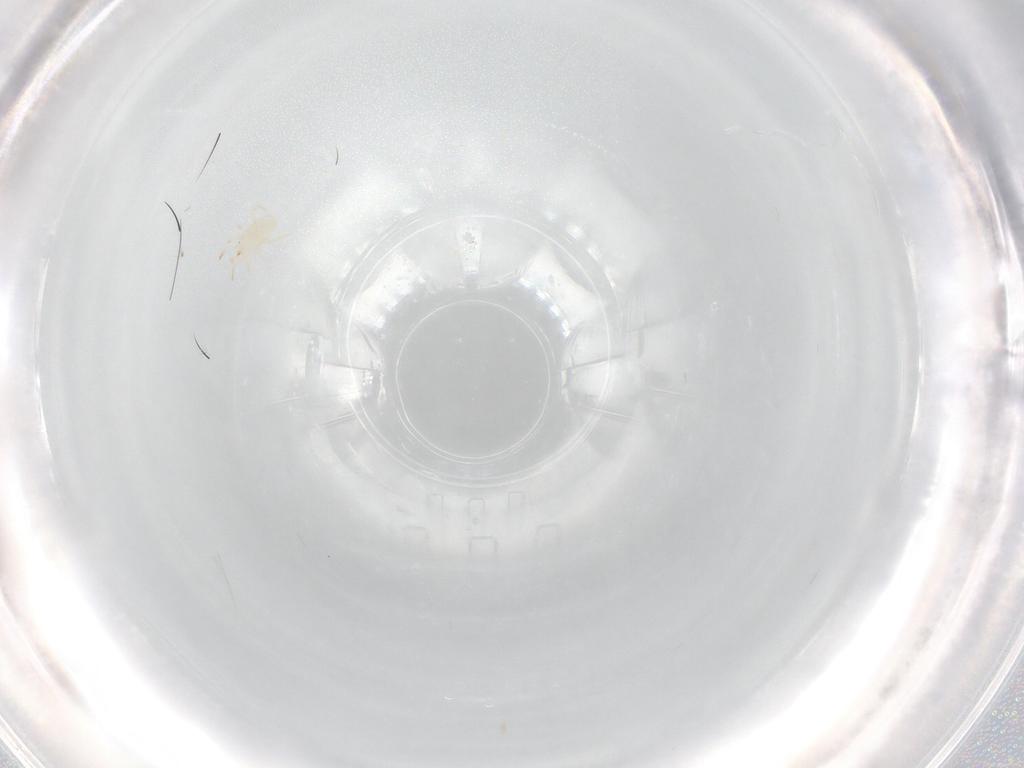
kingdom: Animalia
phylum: Arthropoda
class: Arachnida
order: Mesostigmata
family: Phytoseiidae
